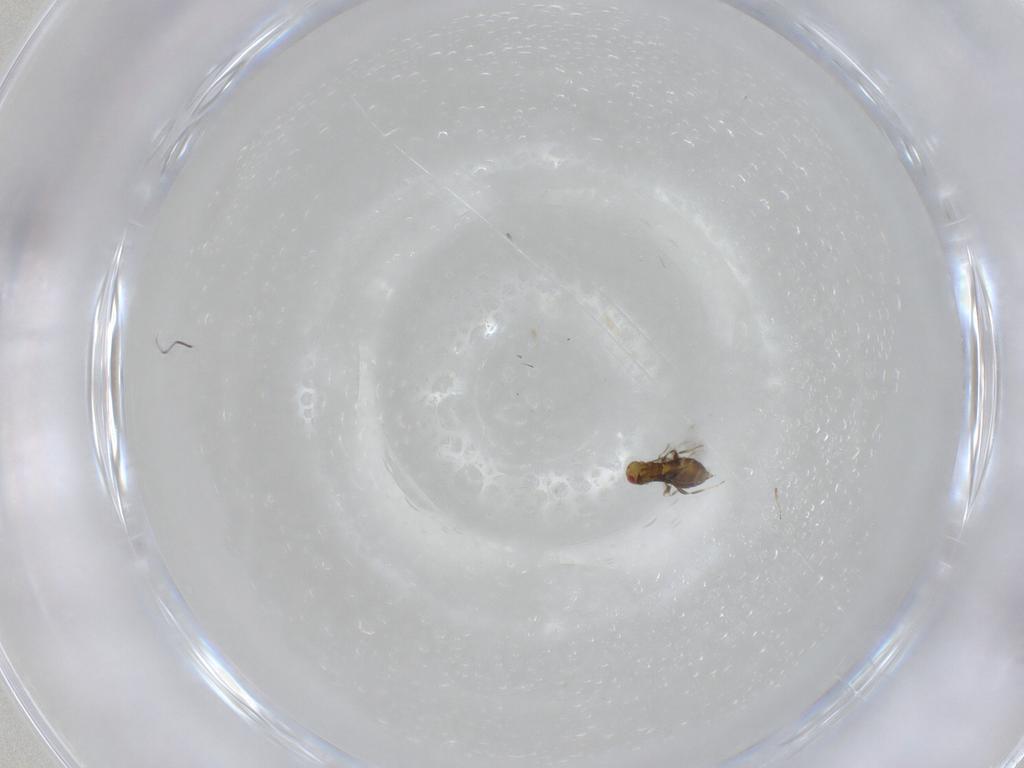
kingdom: Animalia
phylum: Arthropoda
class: Insecta
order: Hymenoptera
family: Trichogrammatidae
